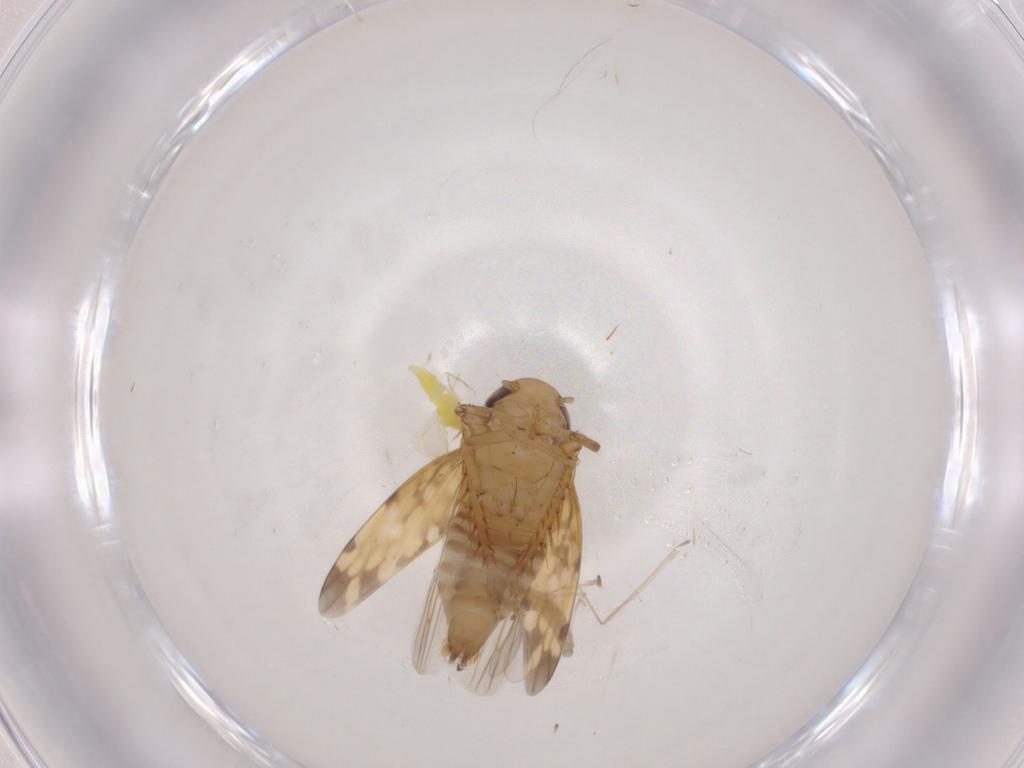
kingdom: Animalia
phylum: Arthropoda
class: Insecta
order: Hemiptera
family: Cicadellidae
